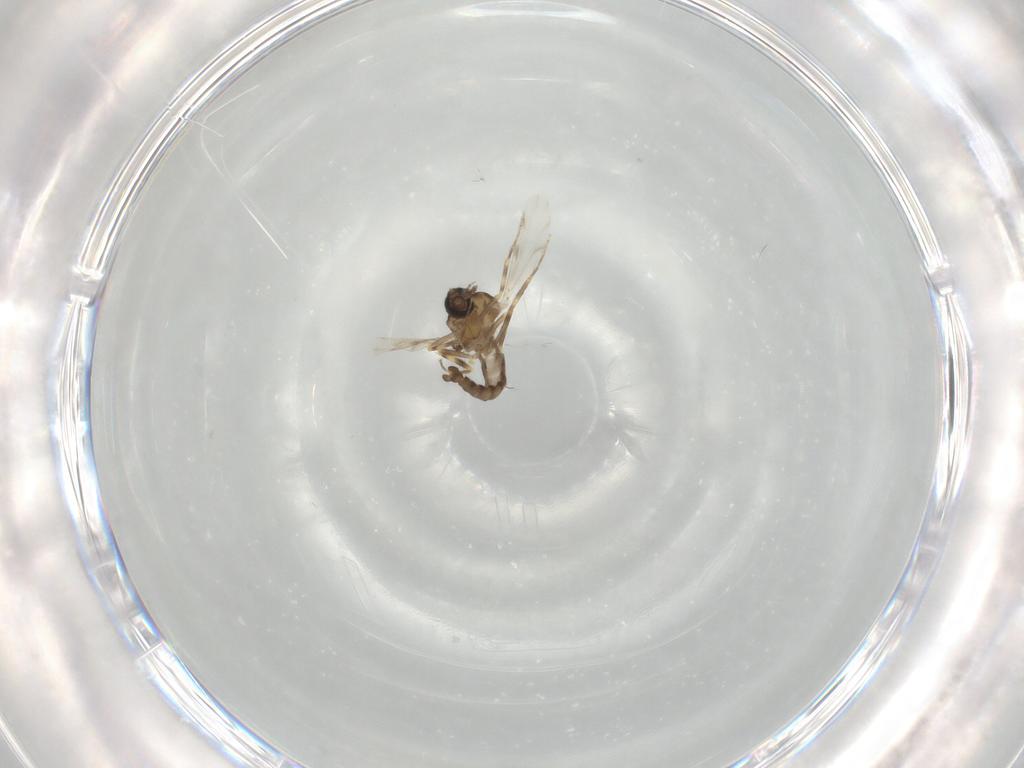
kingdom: Animalia
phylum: Arthropoda
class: Insecta
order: Diptera
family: Ceratopogonidae
